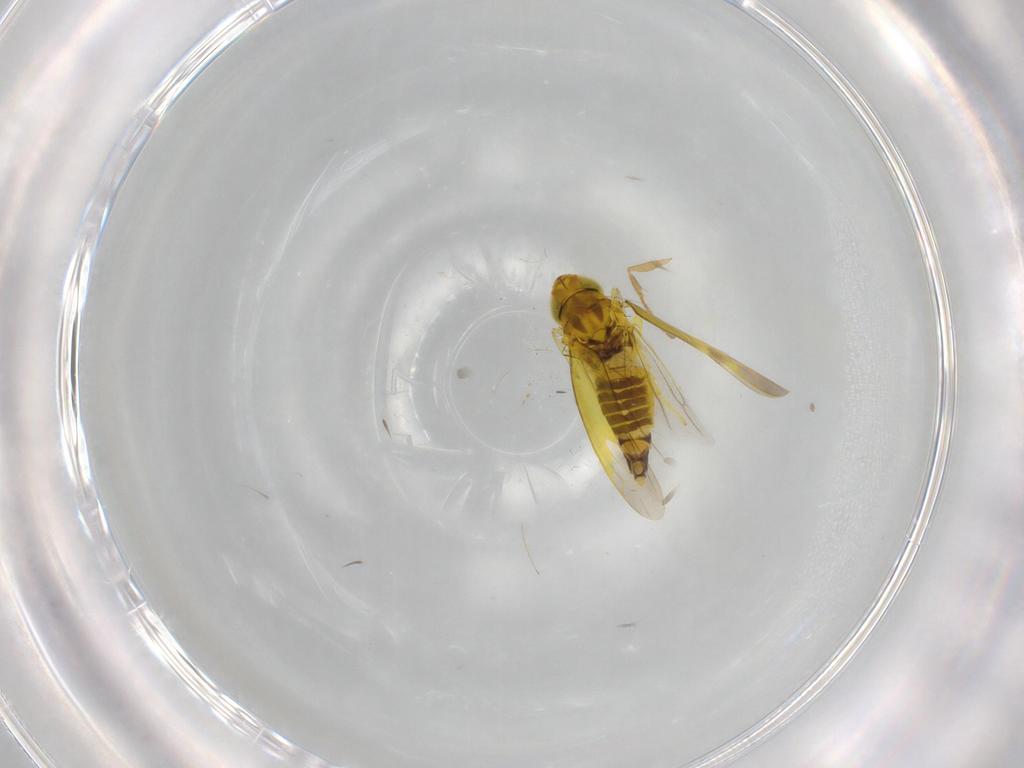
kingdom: Animalia
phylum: Arthropoda
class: Insecta
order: Hemiptera
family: Cicadellidae
